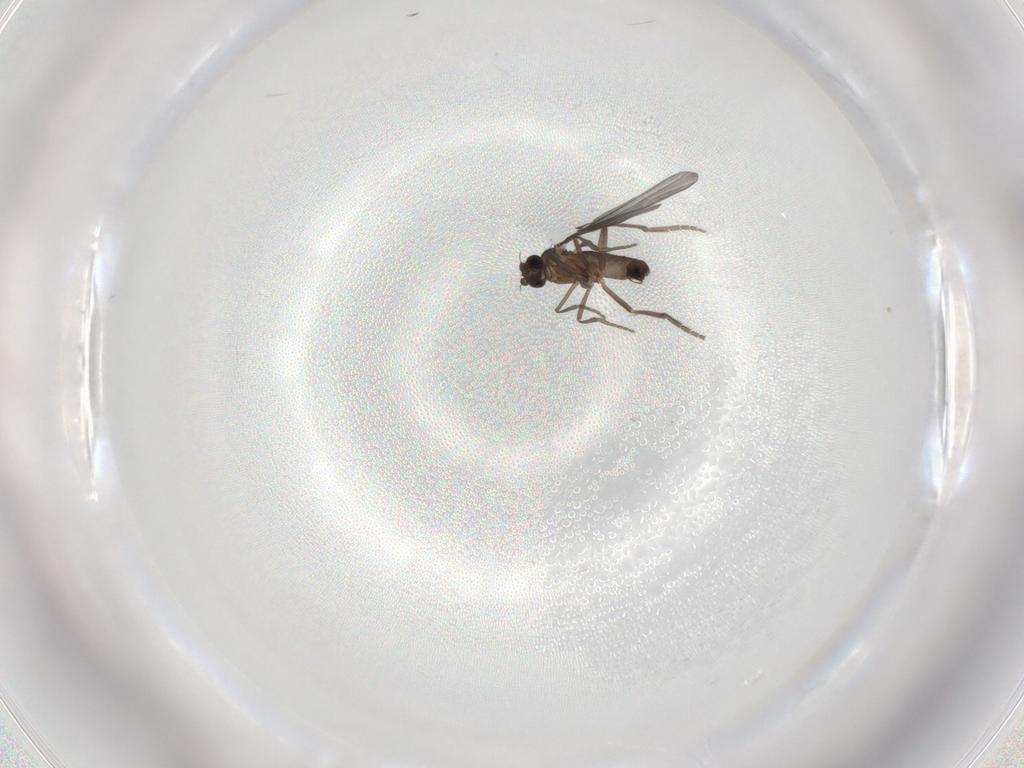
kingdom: Animalia
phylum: Arthropoda
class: Insecta
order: Diptera
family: Phoridae
